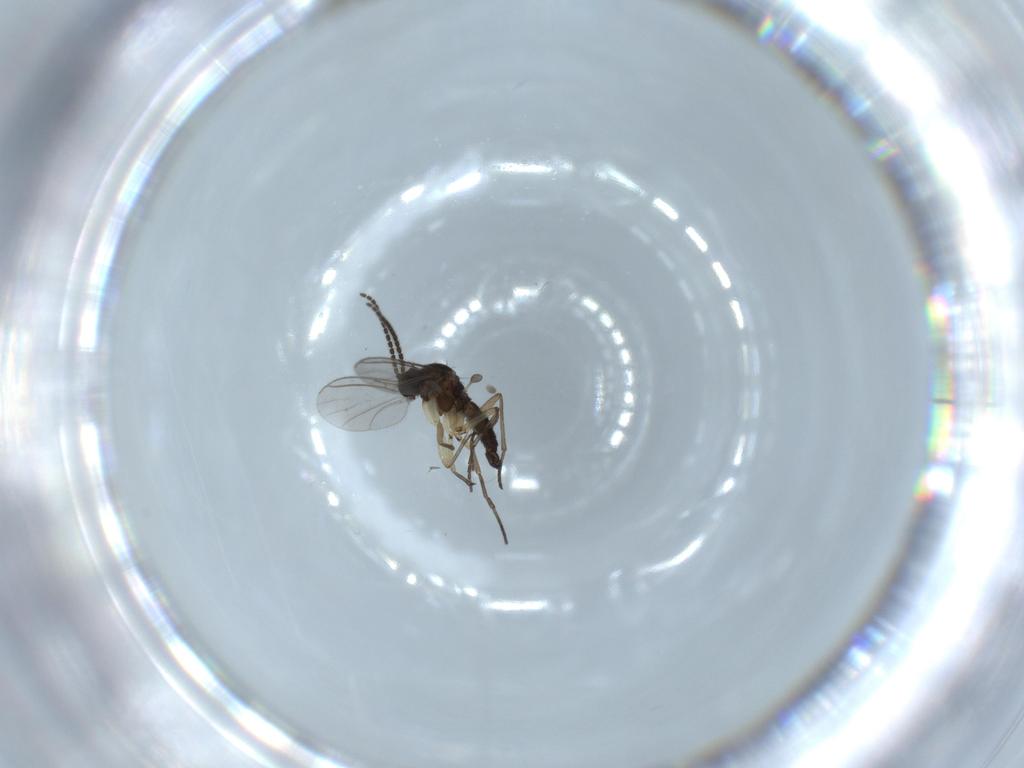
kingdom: Animalia
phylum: Arthropoda
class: Insecta
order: Diptera
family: Sciaridae
